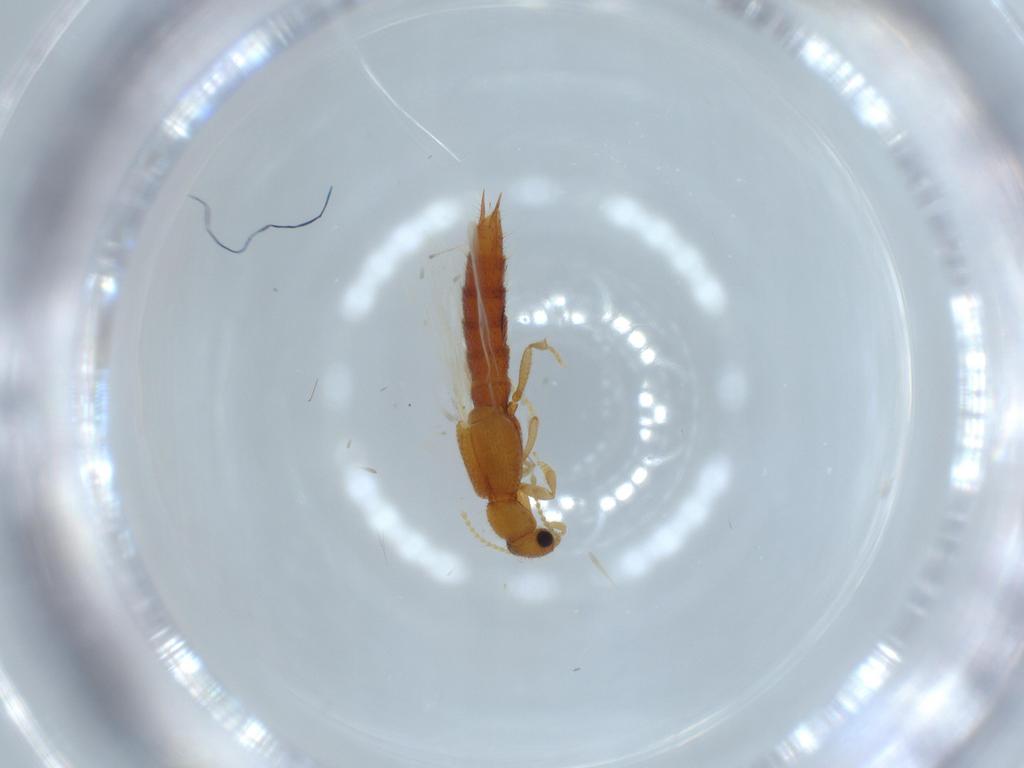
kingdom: Animalia
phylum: Arthropoda
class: Insecta
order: Coleoptera
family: Staphylinidae
